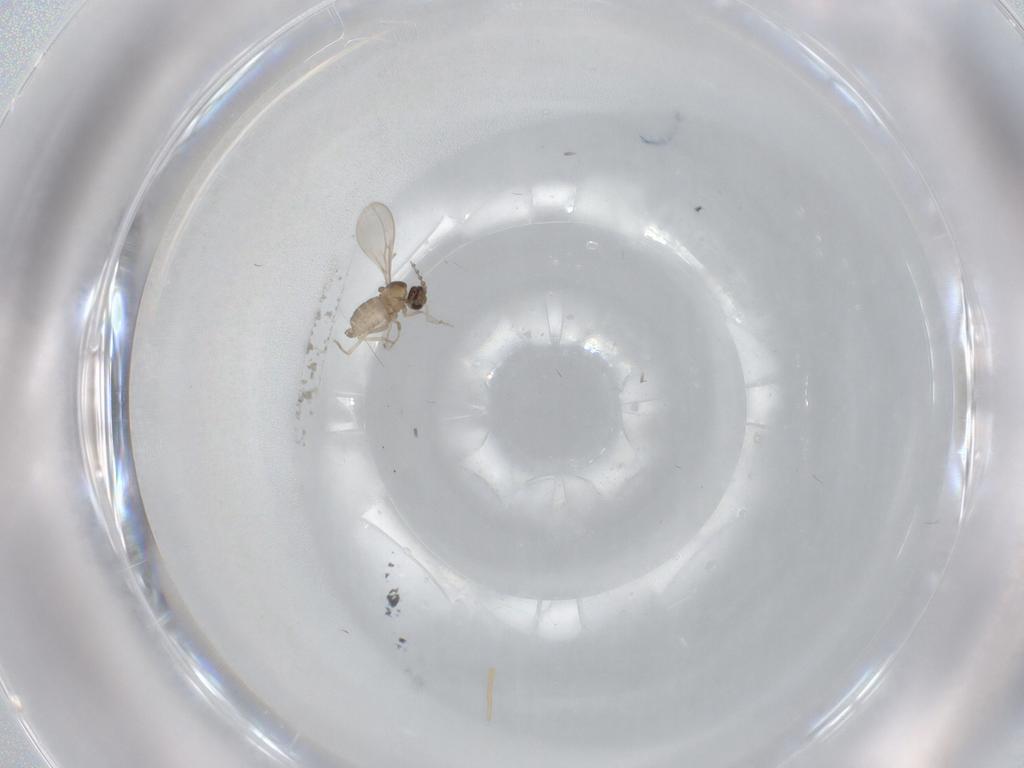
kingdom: Animalia
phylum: Arthropoda
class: Insecta
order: Diptera
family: Cecidomyiidae
